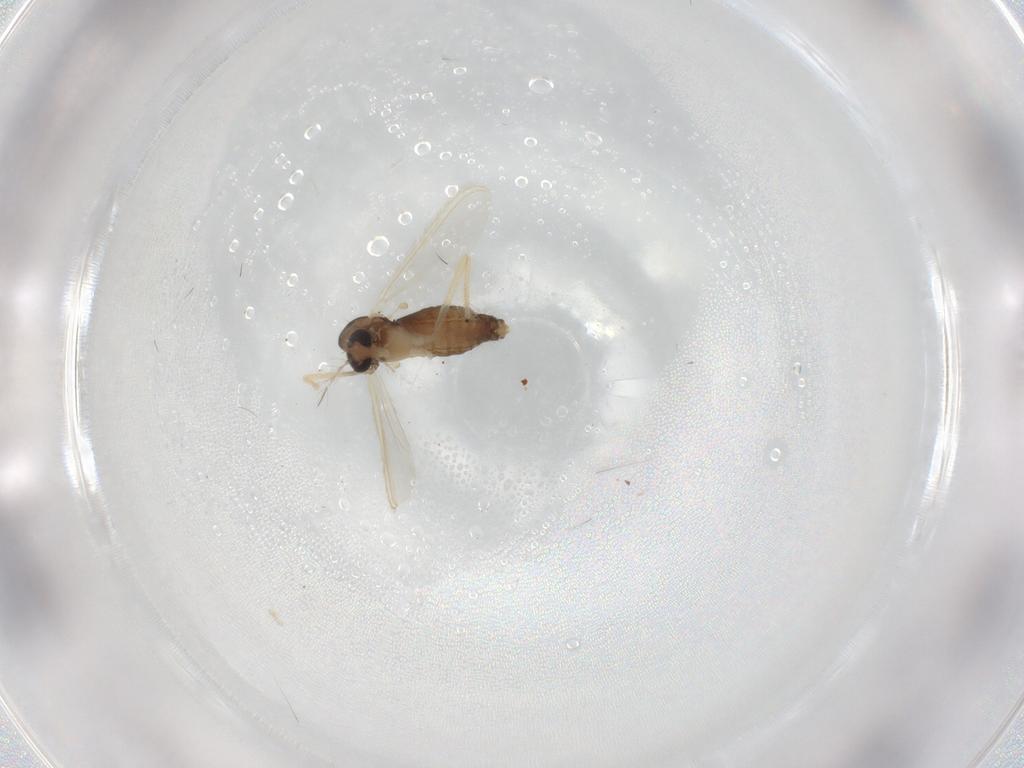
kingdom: Animalia
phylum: Arthropoda
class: Insecta
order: Diptera
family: Chironomidae
